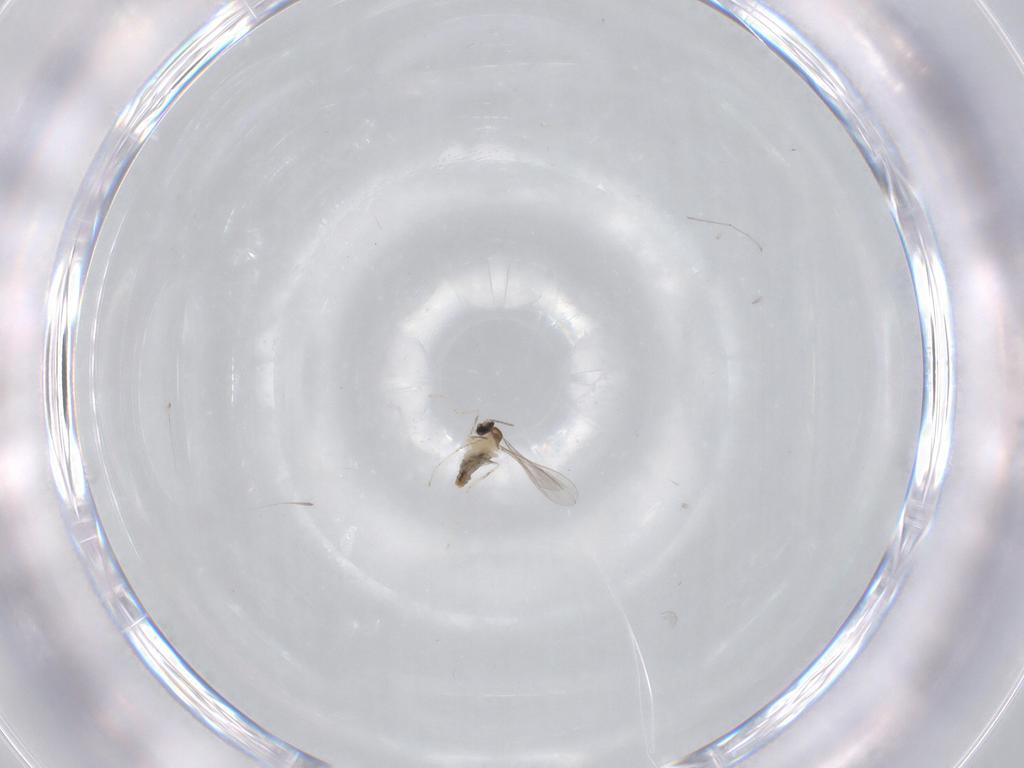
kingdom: Animalia
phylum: Arthropoda
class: Insecta
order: Diptera
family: Cecidomyiidae
